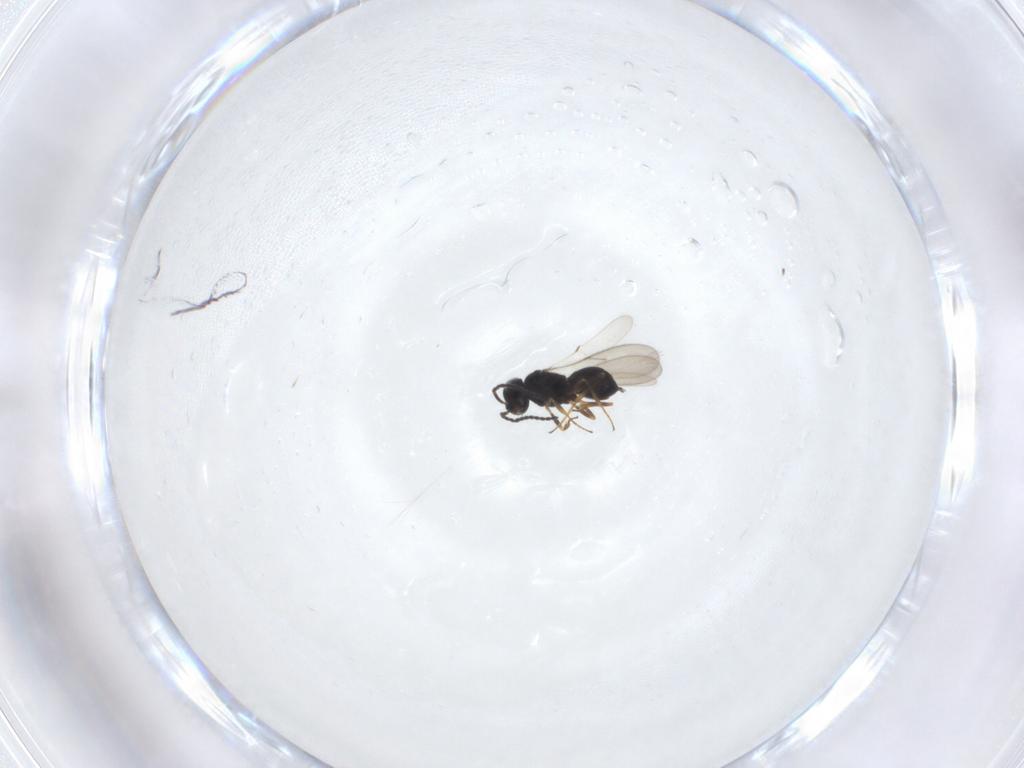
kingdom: Animalia
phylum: Arthropoda
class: Insecta
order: Hymenoptera
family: Scelionidae
